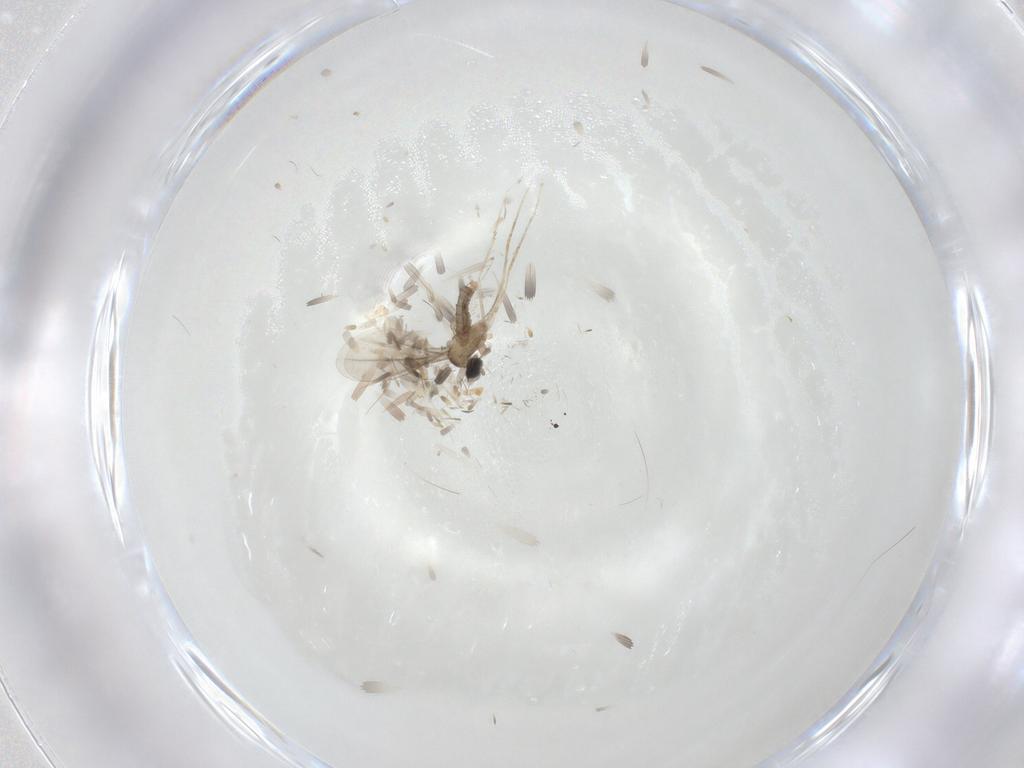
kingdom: Animalia
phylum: Arthropoda
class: Insecta
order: Diptera
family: Cecidomyiidae
